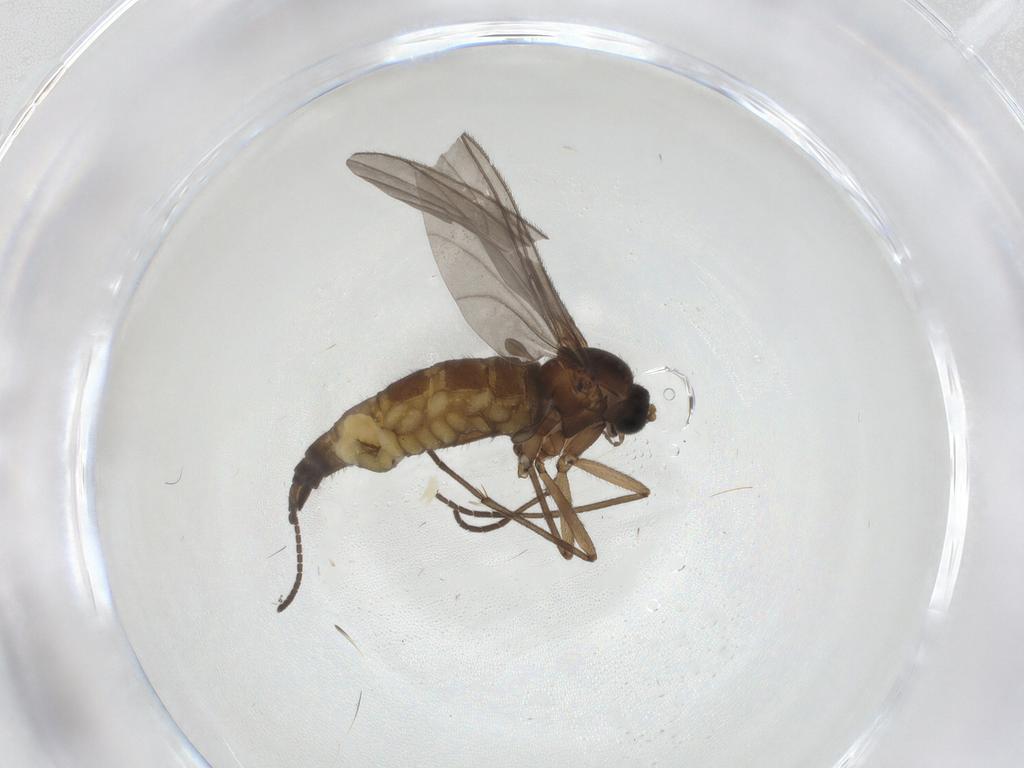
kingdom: Animalia
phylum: Arthropoda
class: Insecta
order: Diptera
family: Sciaridae
